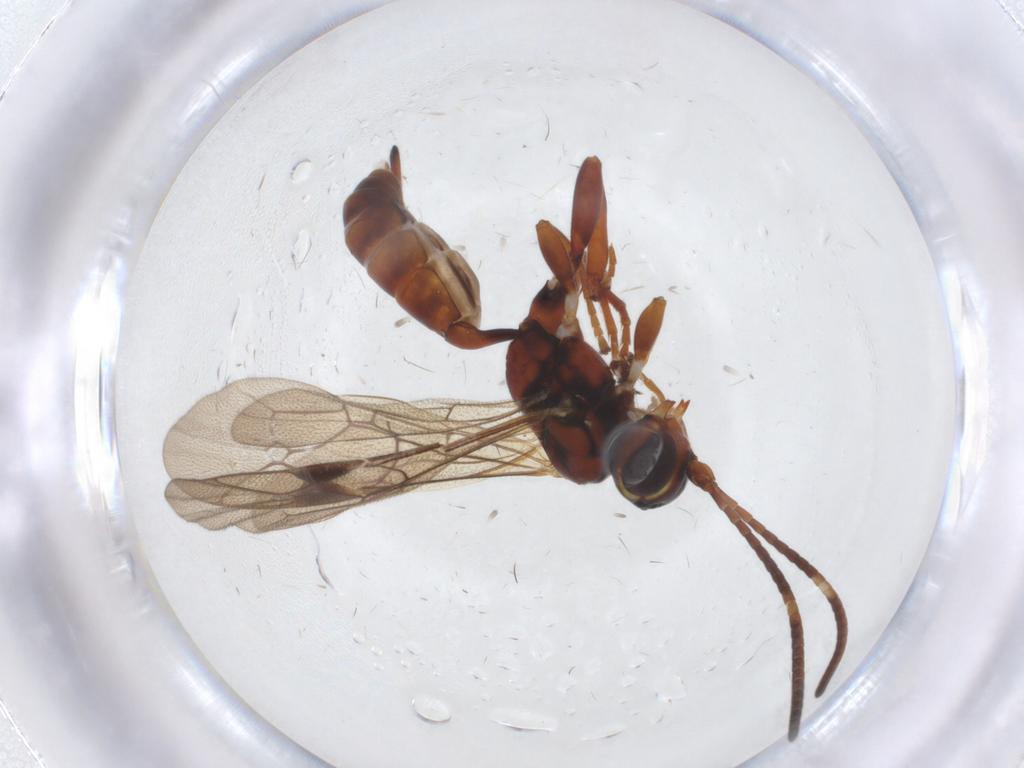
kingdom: Animalia
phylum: Arthropoda
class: Insecta
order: Hymenoptera
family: Ichneumonidae
